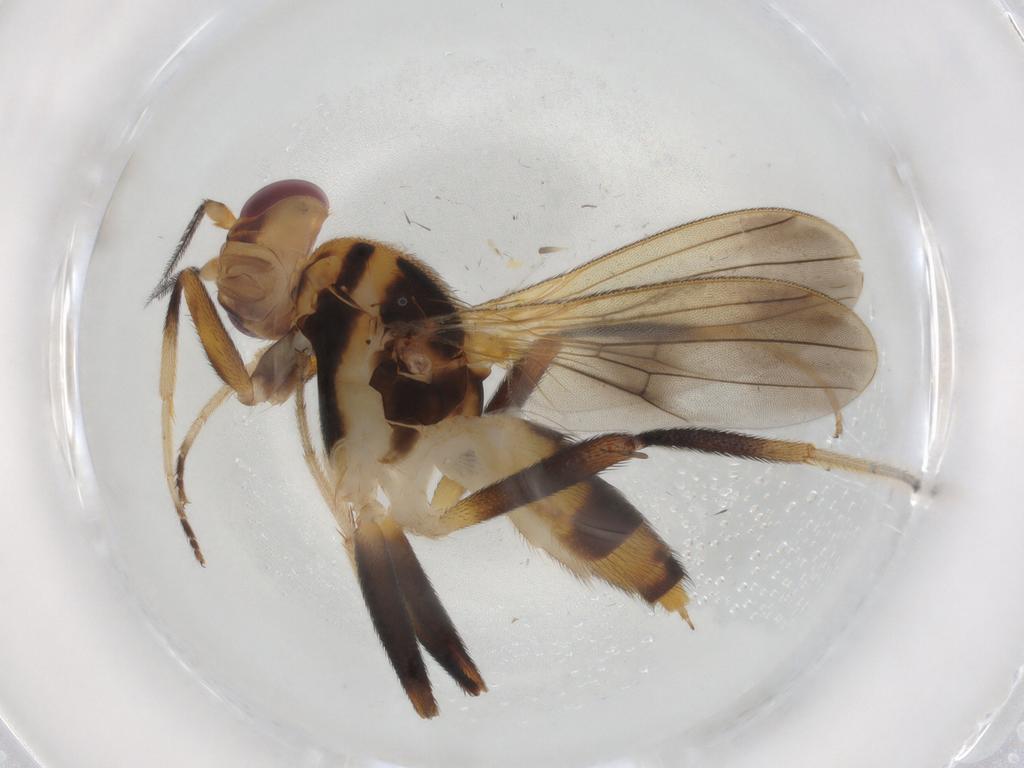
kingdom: Animalia
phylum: Arthropoda
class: Insecta
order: Diptera
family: Clusiidae
